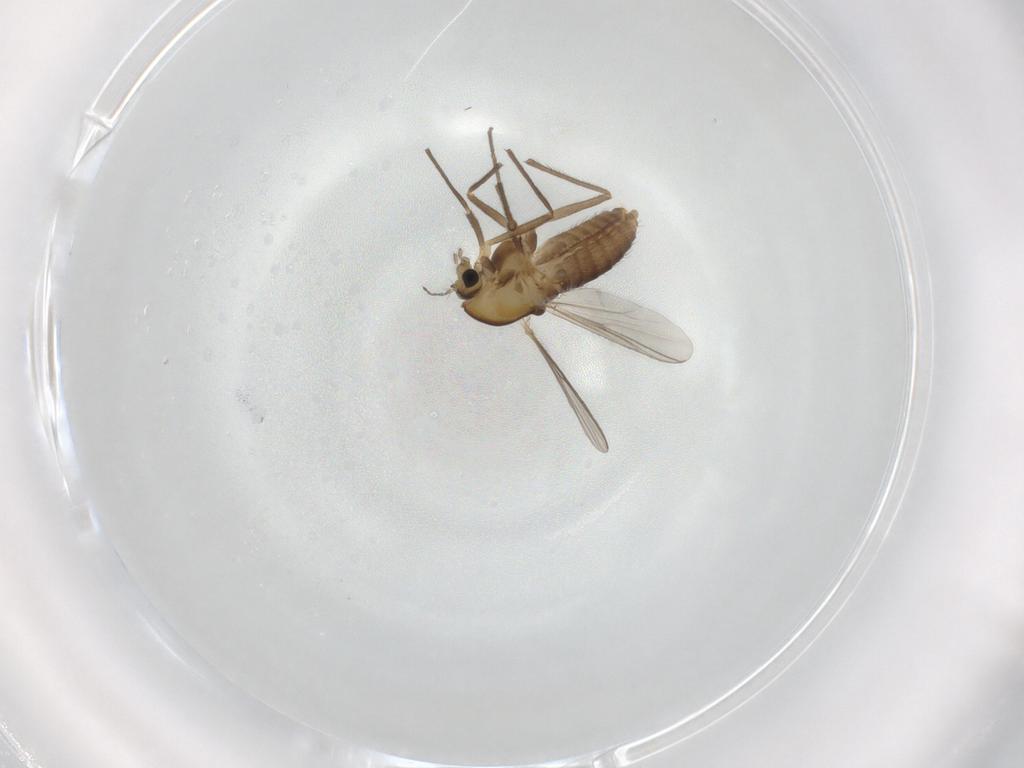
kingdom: Animalia
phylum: Arthropoda
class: Insecta
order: Diptera
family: Chironomidae
